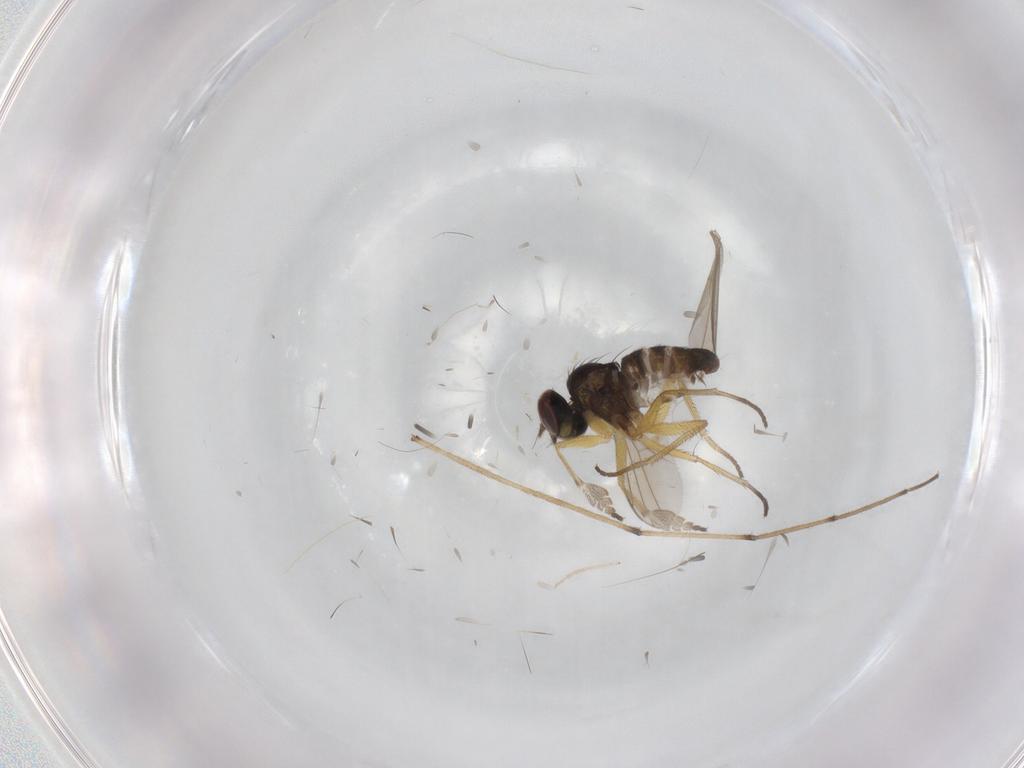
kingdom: Animalia
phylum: Arthropoda
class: Insecta
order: Diptera
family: Dolichopodidae
